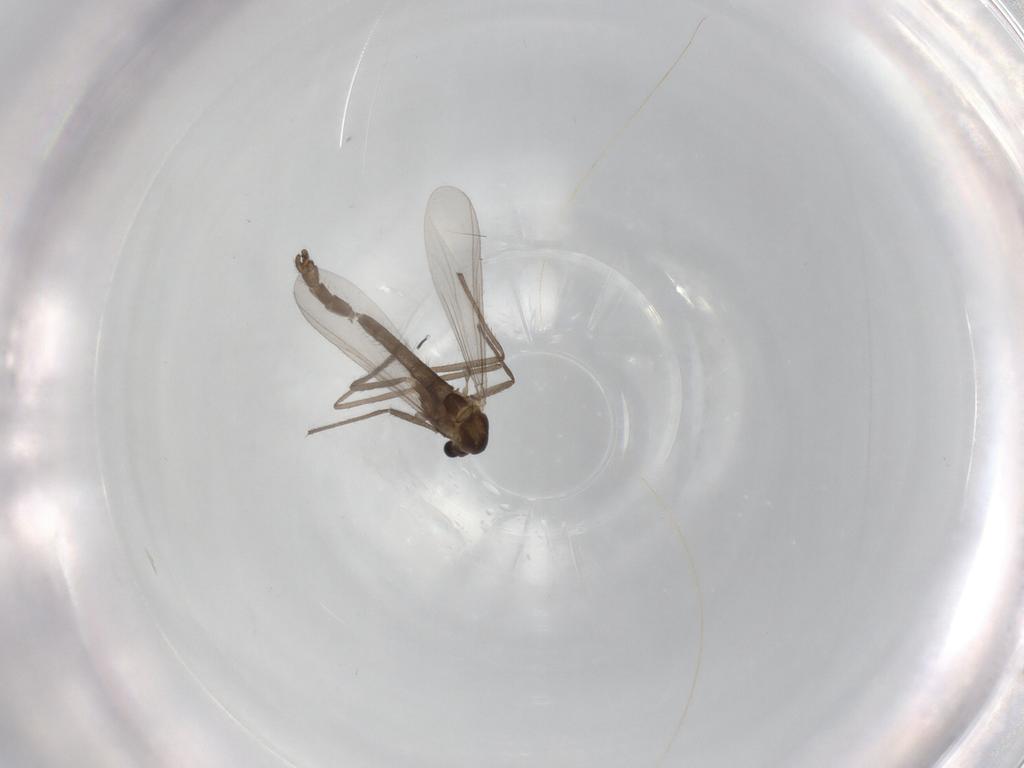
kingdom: Animalia
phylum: Arthropoda
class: Insecta
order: Diptera
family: Chironomidae
